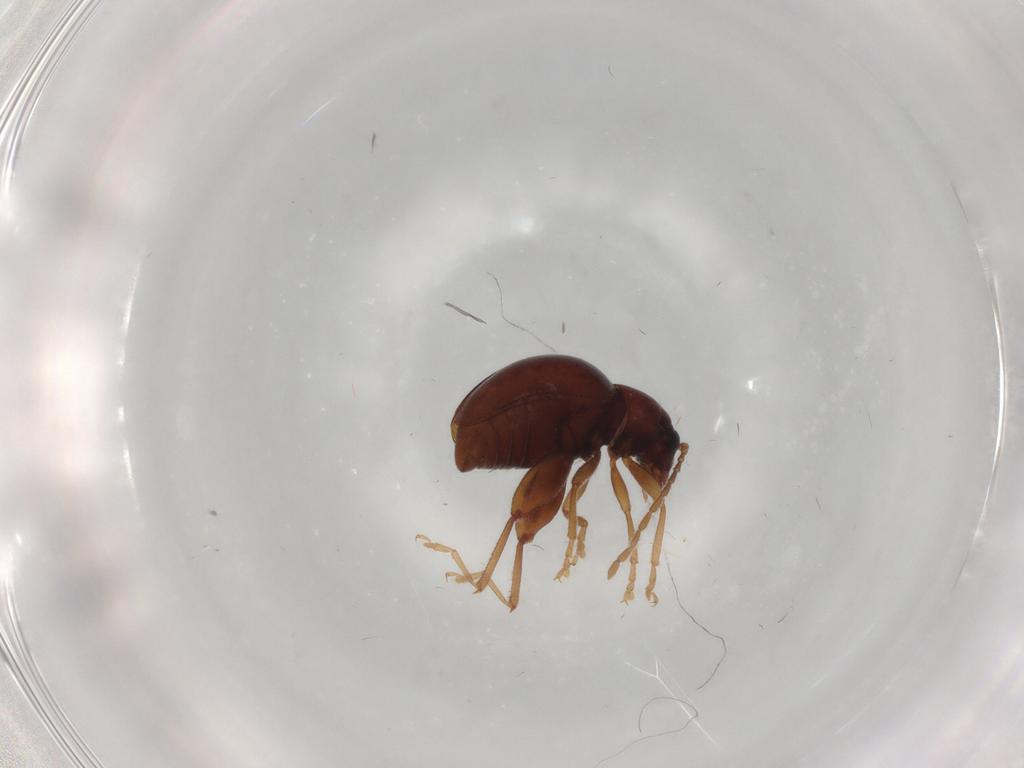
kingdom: Animalia
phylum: Arthropoda
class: Insecta
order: Coleoptera
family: Chrysomelidae
